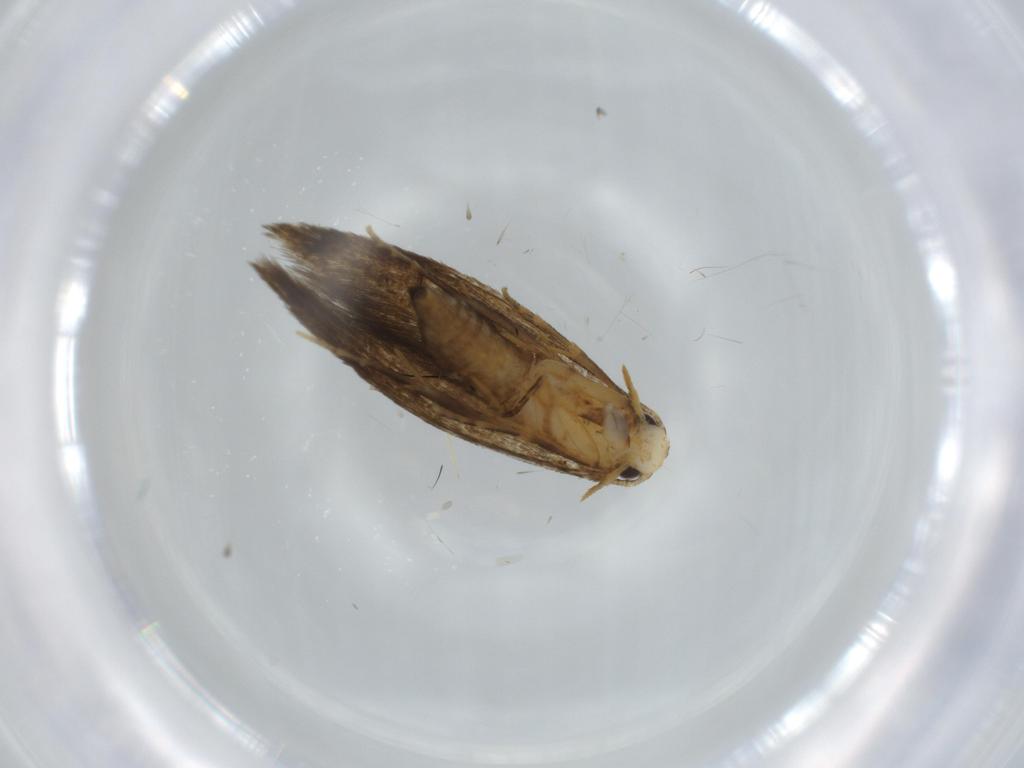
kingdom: Animalia
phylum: Arthropoda
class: Insecta
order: Lepidoptera
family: Tineidae
